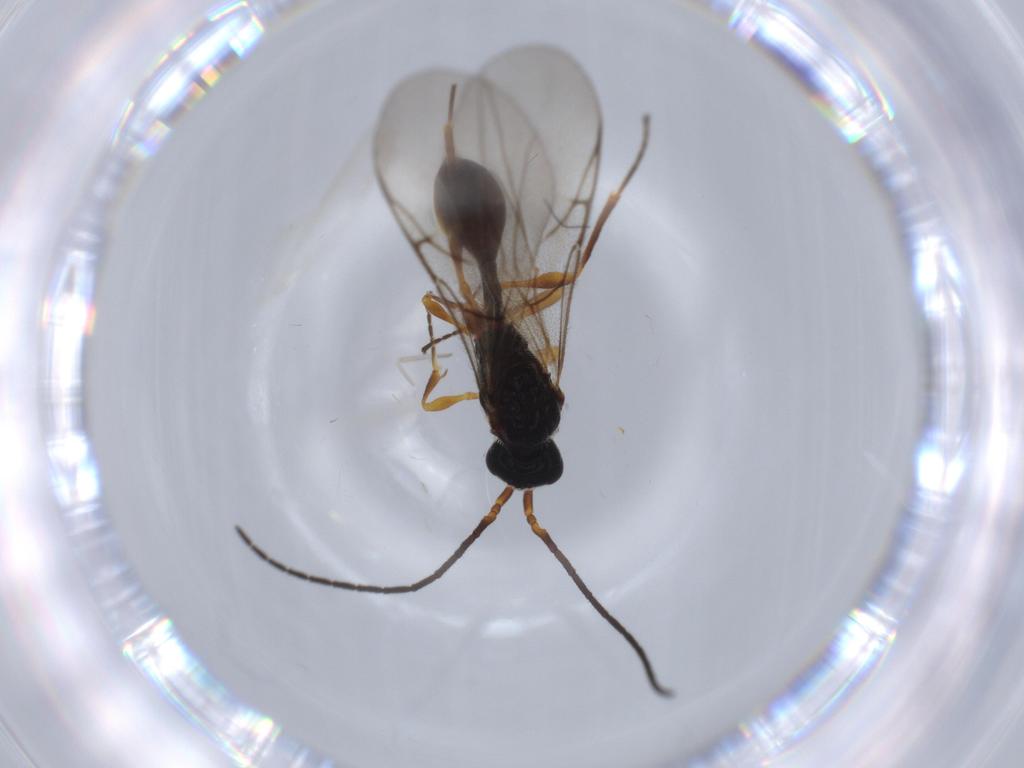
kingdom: Animalia
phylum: Arthropoda
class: Insecta
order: Hymenoptera
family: Diapriidae
